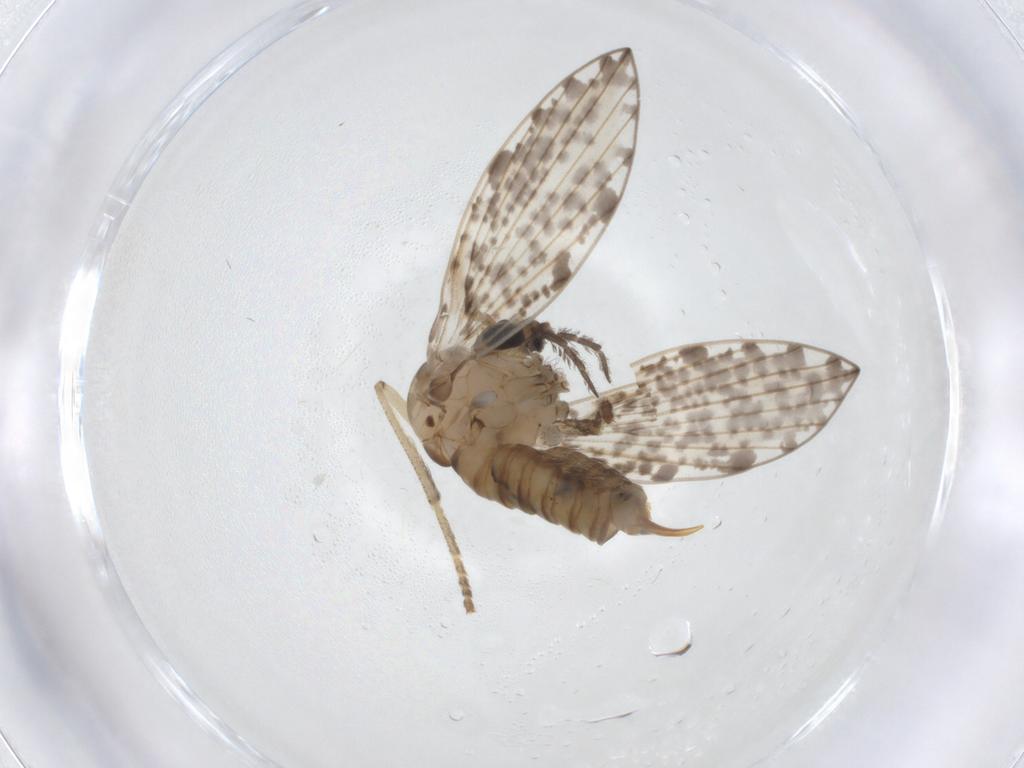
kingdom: Animalia
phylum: Arthropoda
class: Insecta
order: Diptera
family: Psychodidae
